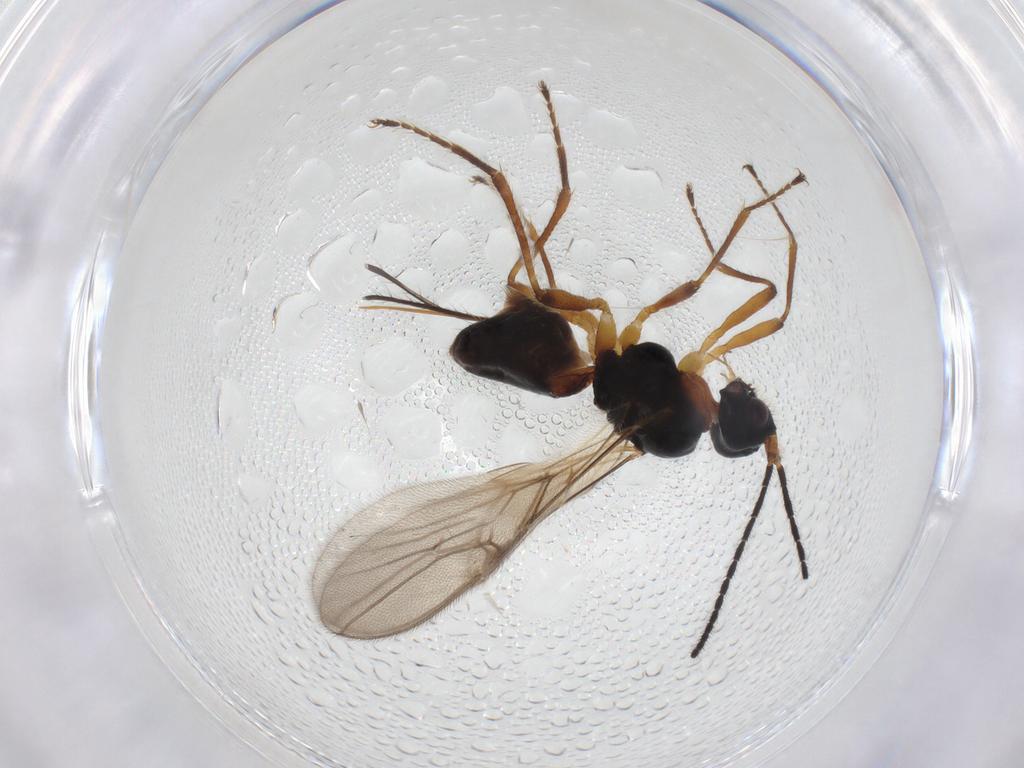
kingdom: Animalia
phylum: Arthropoda
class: Insecta
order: Hymenoptera
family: Braconidae
